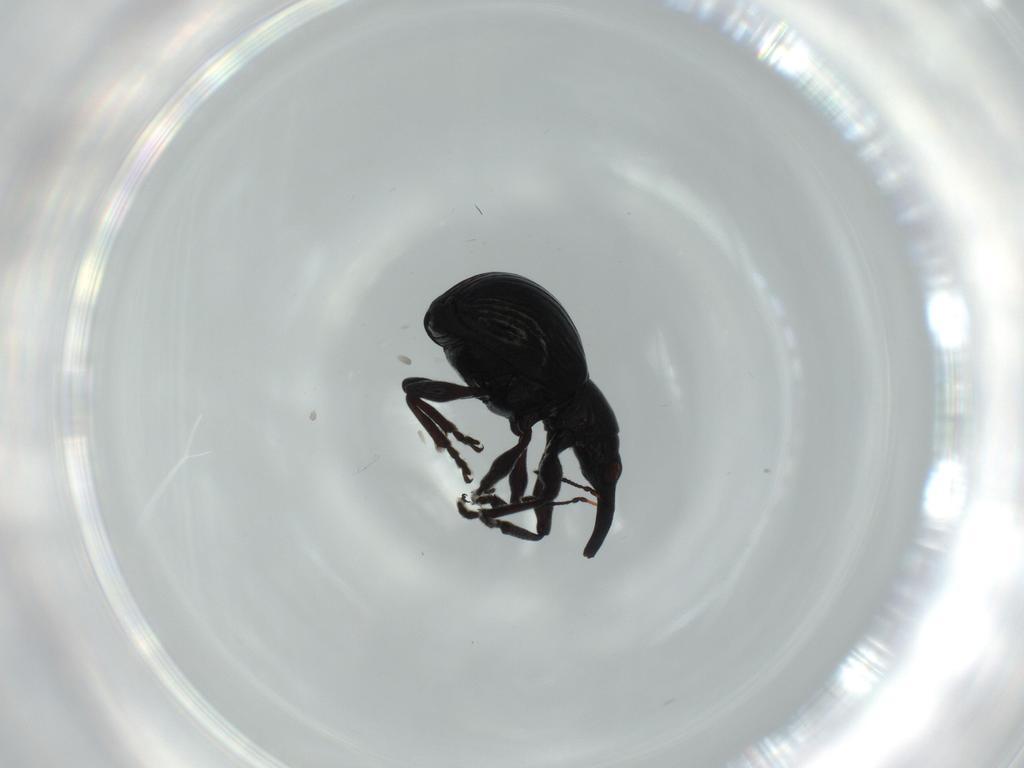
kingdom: Animalia
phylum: Arthropoda
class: Insecta
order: Coleoptera
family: Brentidae
